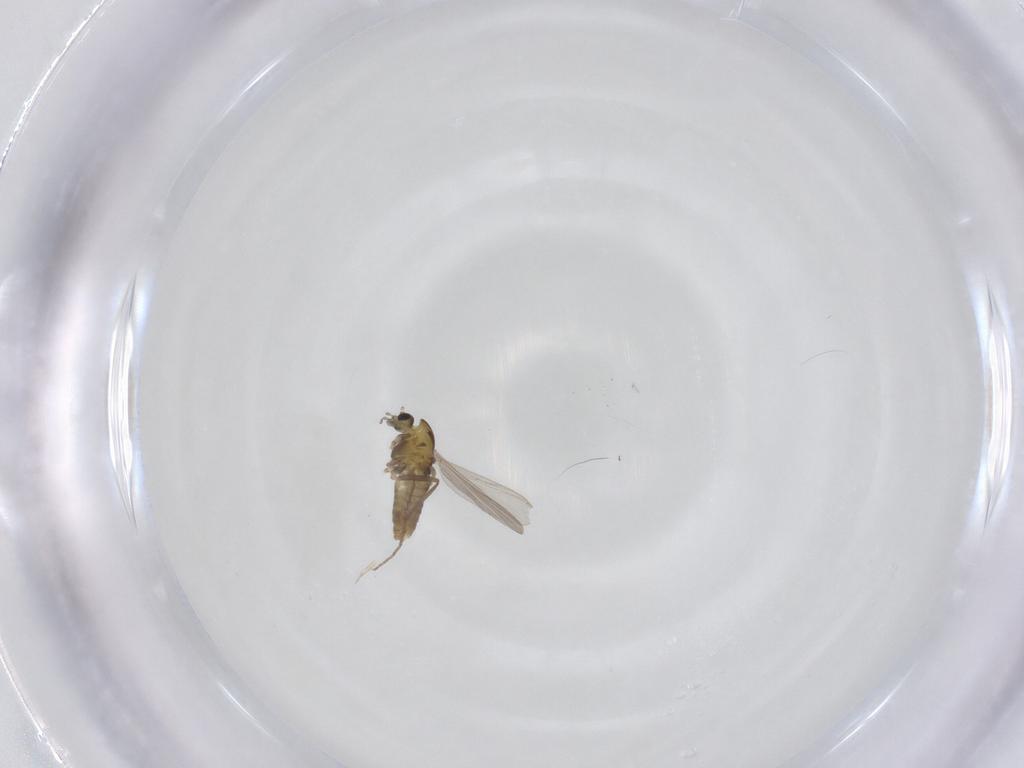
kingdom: Animalia
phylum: Arthropoda
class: Insecta
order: Diptera
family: Chironomidae
